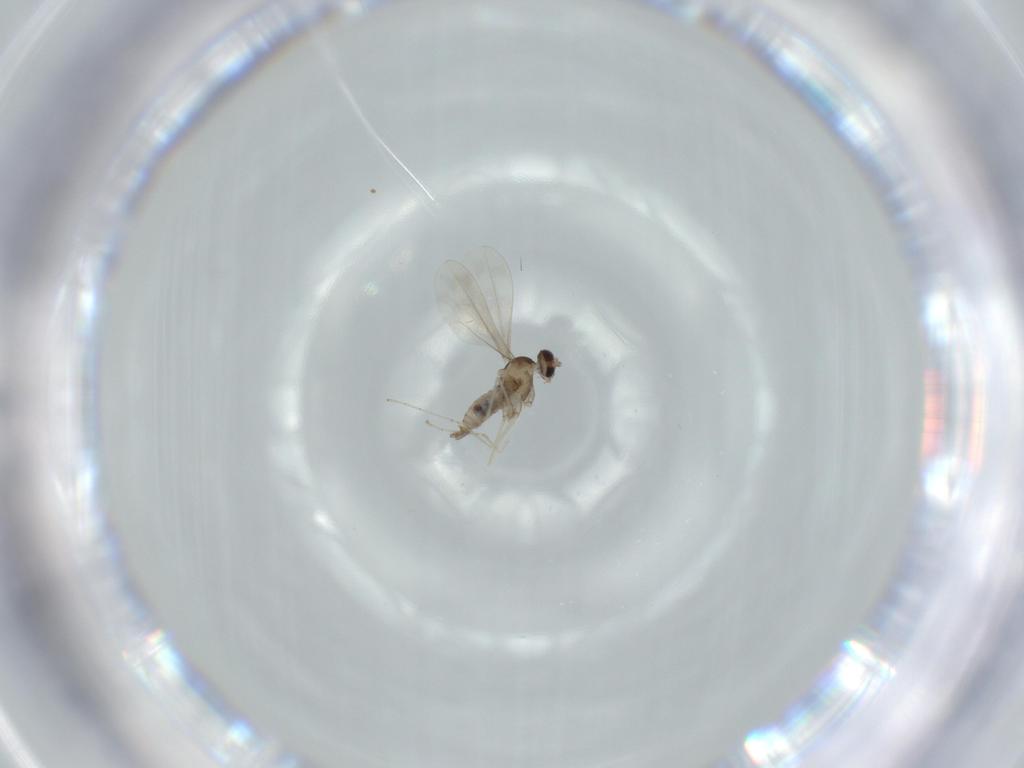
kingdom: Animalia
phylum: Arthropoda
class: Insecta
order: Diptera
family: Cecidomyiidae
